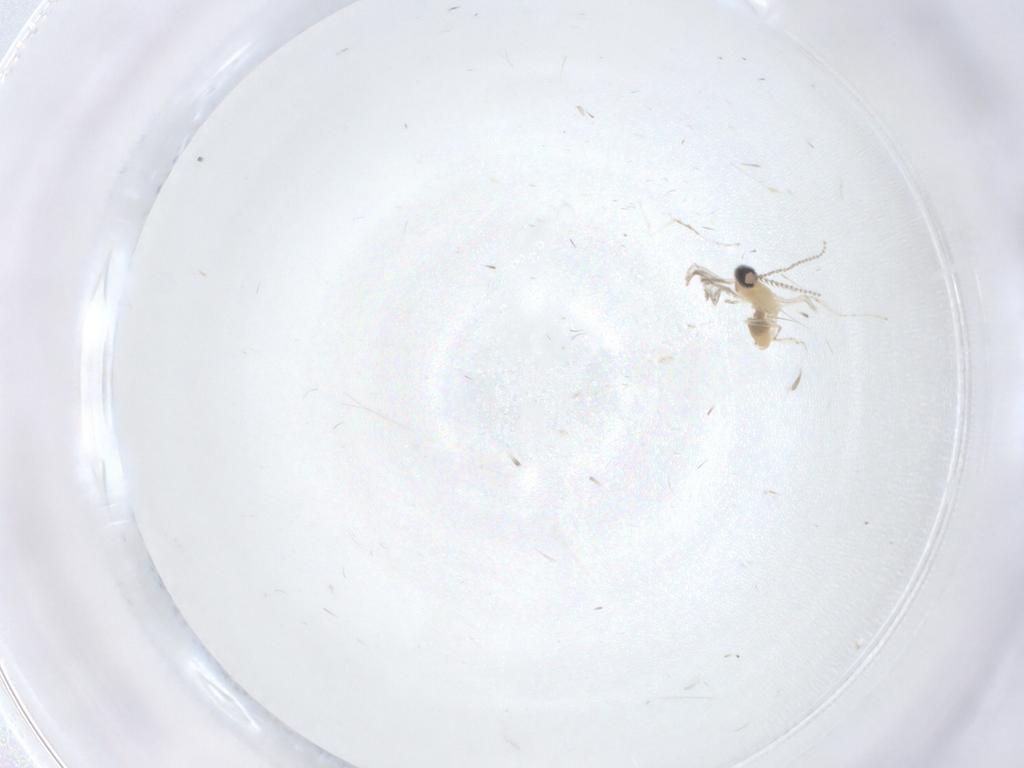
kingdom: Animalia
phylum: Arthropoda
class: Insecta
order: Diptera
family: Cecidomyiidae
